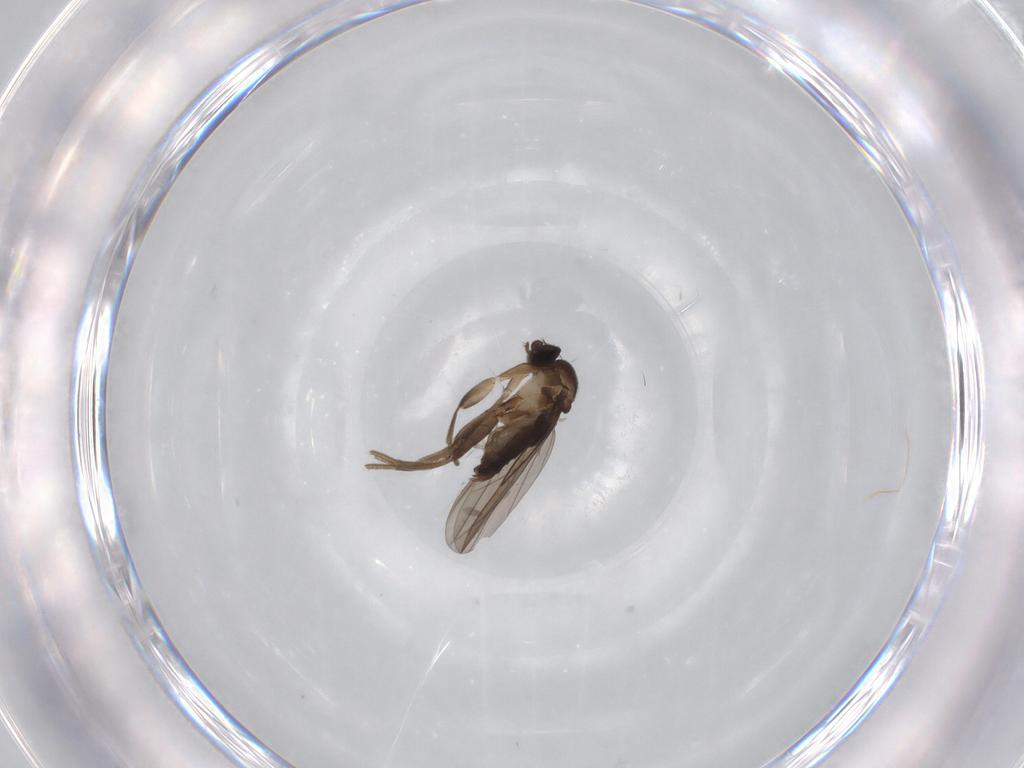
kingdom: Animalia
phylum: Arthropoda
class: Insecta
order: Diptera
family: Phoridae
